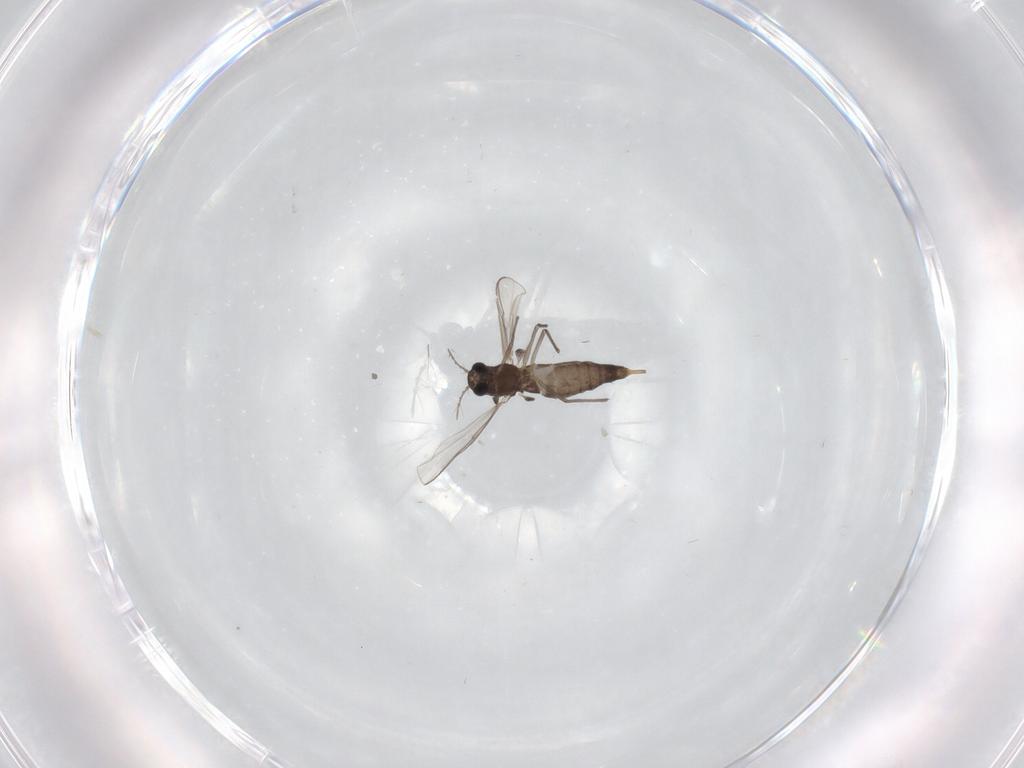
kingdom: Animalia
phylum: Arthropoda
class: Insecta
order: Diptera
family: Chironomidae
